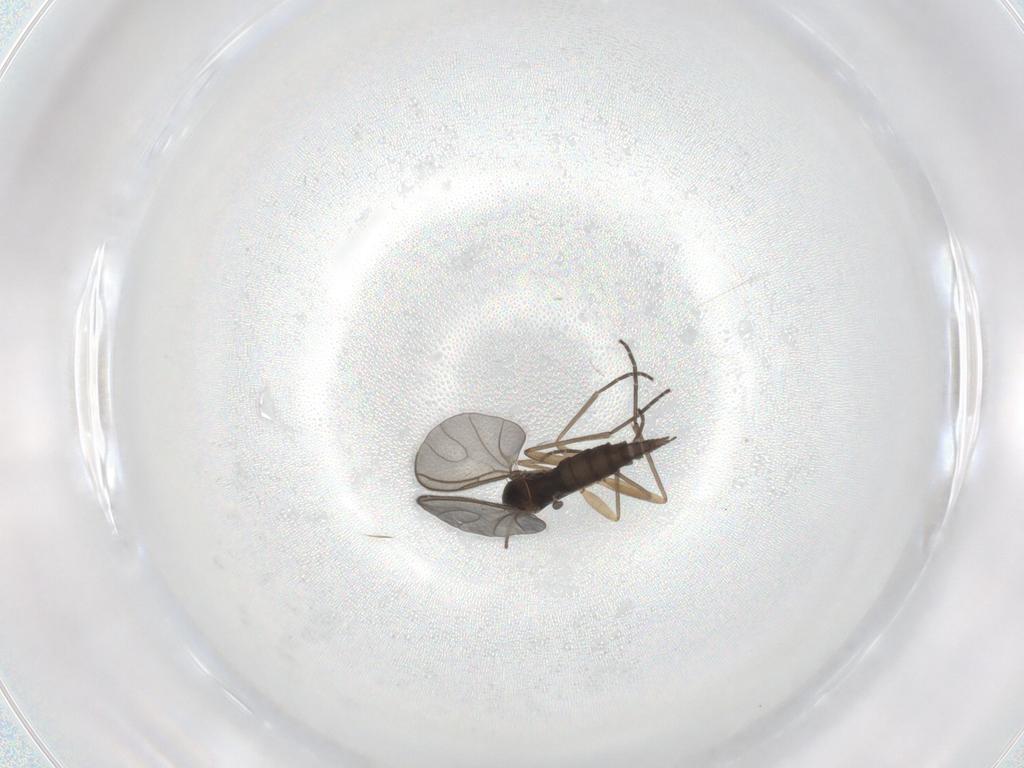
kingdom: Animalia
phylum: Arthropoda
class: Insecta
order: Diptera
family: Sciaridae
